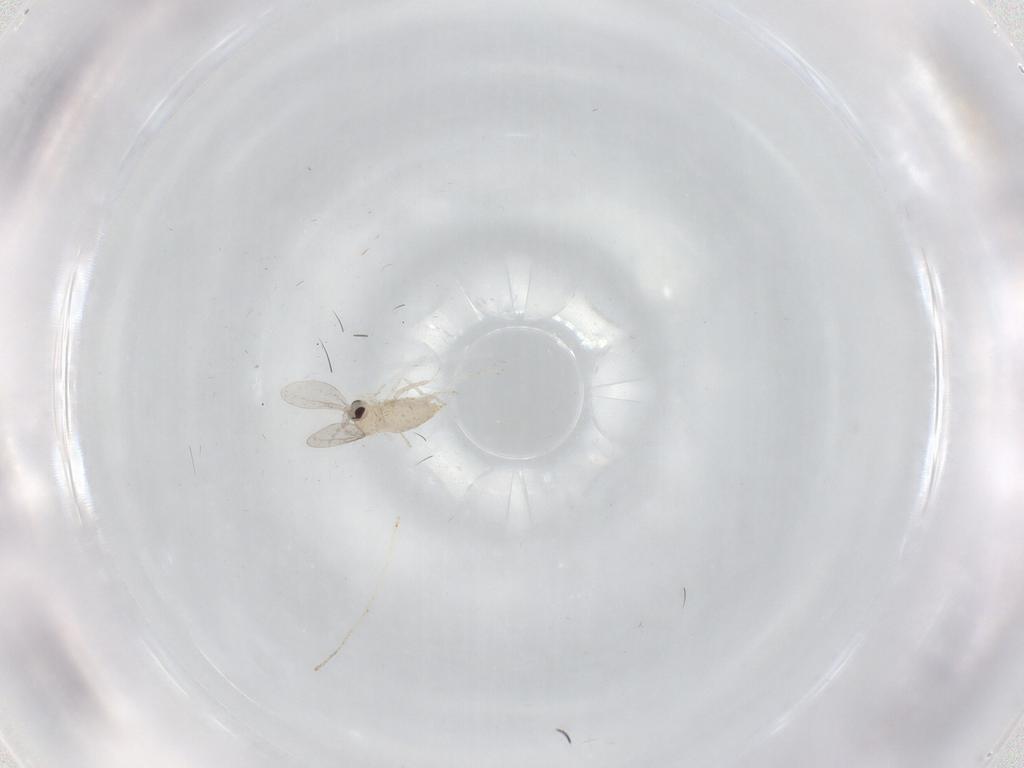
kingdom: Animalia
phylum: Arthropoda
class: Insecta
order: Diptera
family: Cecidomyiidae
